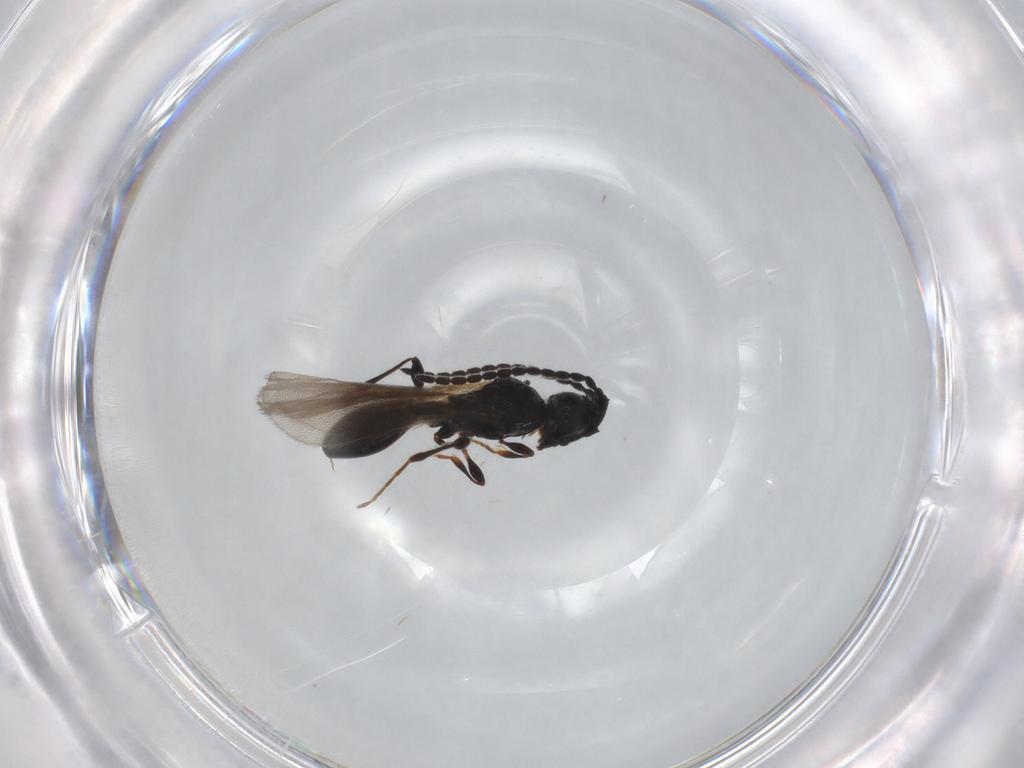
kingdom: Animalia
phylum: Arthropoda
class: Insecta
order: Hymenoptera
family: Diapriidae
